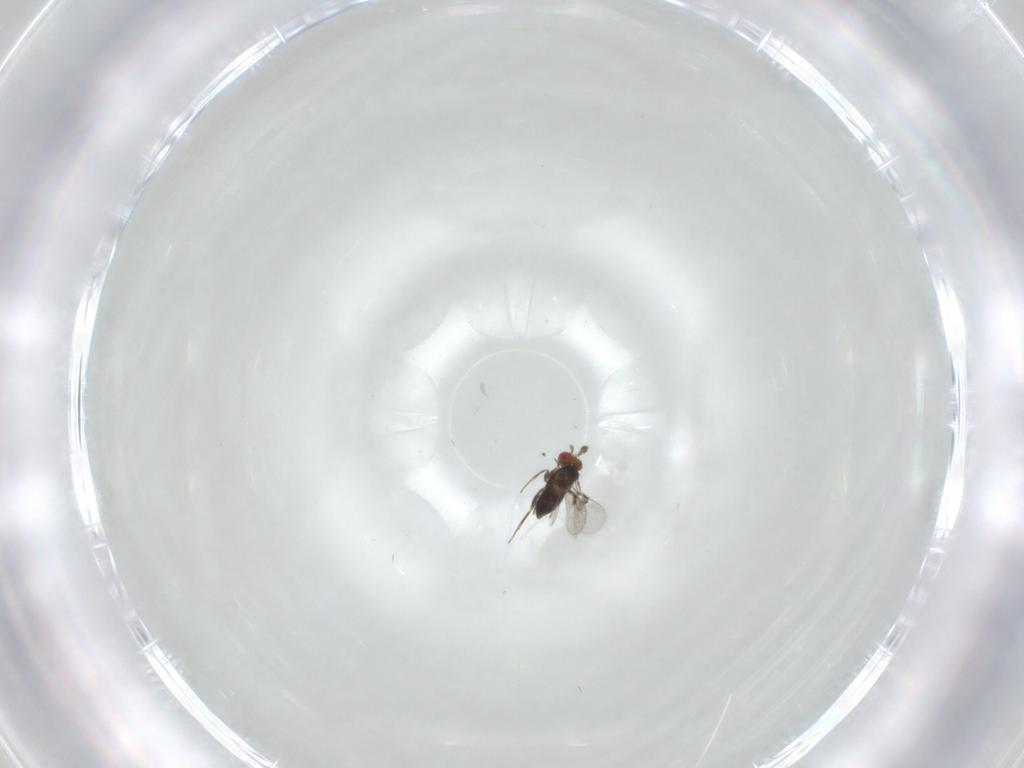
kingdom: Animalia
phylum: Arthropoda
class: Insecta
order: Hymenoptera
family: Trichogrammatidae
